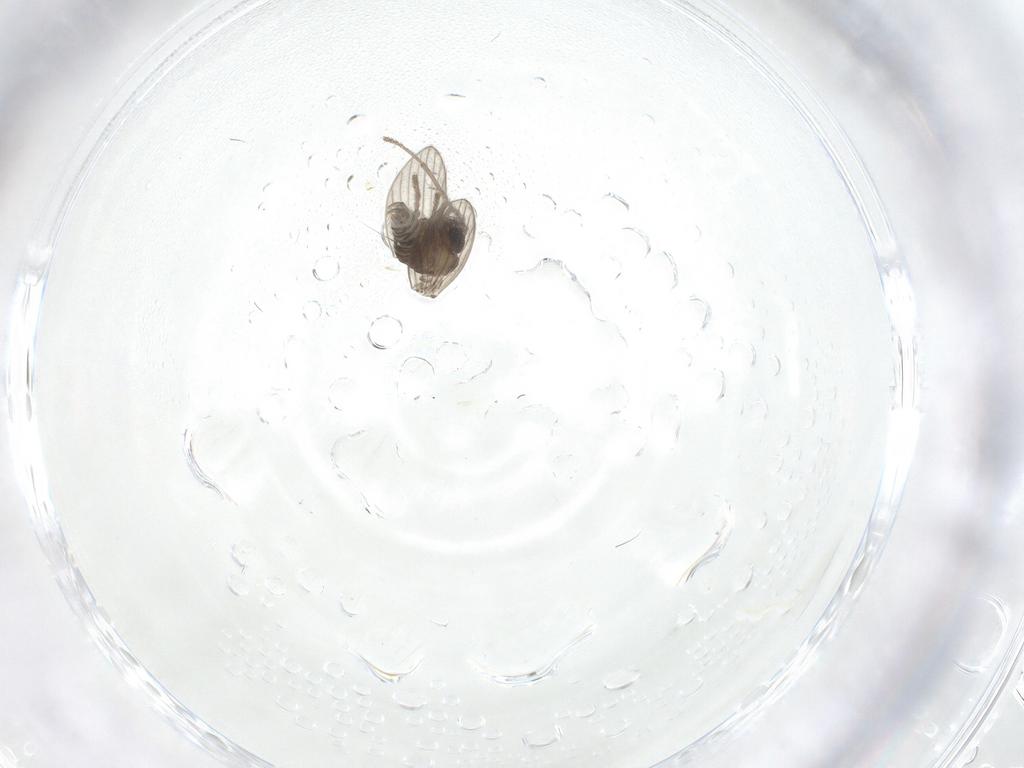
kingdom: Animalia
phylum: Arthropoda
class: Insecta
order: Diptera
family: Psychodidae
